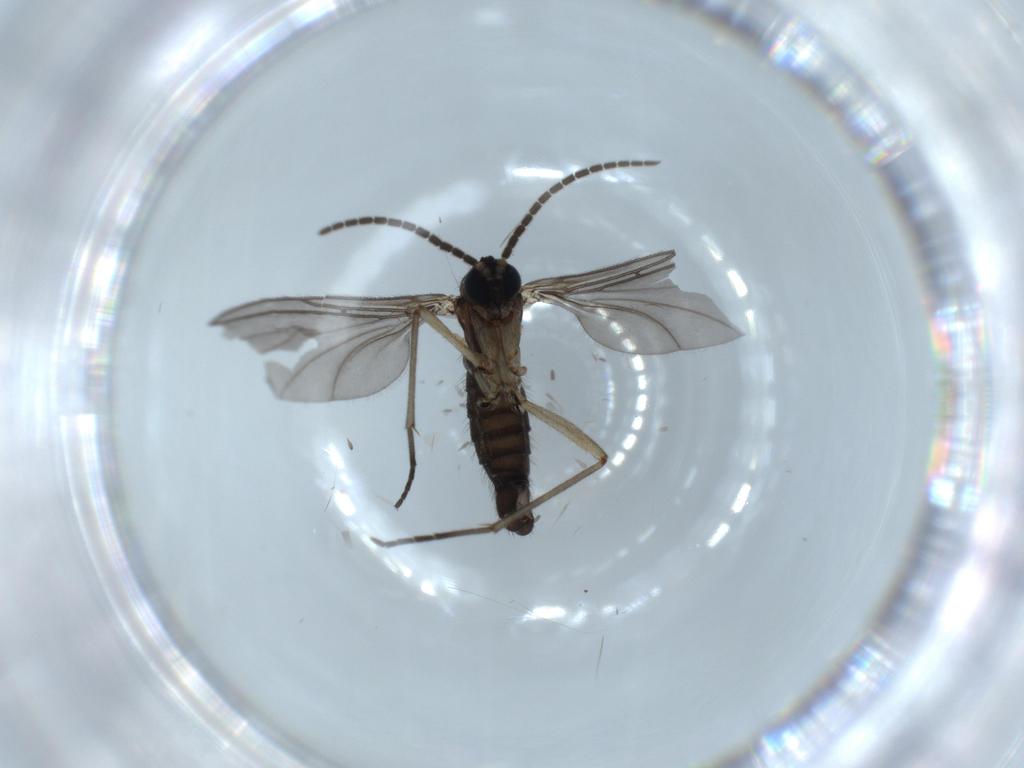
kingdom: Animalia
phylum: Arthropoda
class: Insecta
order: Diptera
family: Sciaridae
